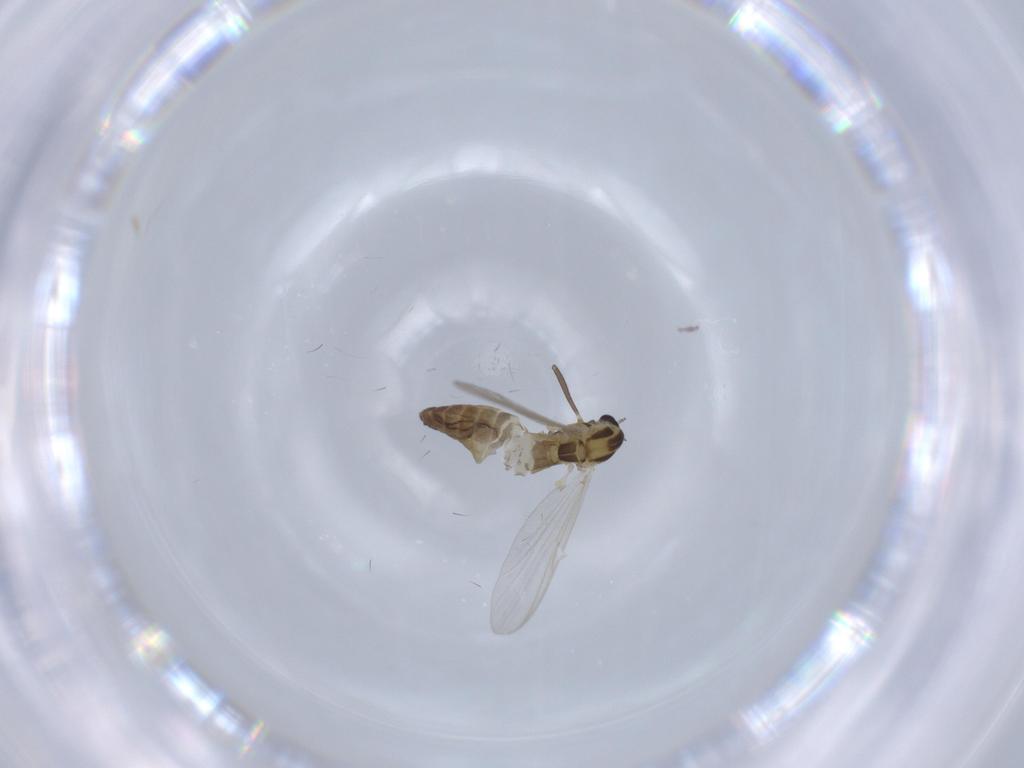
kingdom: Animalia
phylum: Arthropoda
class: Insecta
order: Diptera
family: Chironomidae
